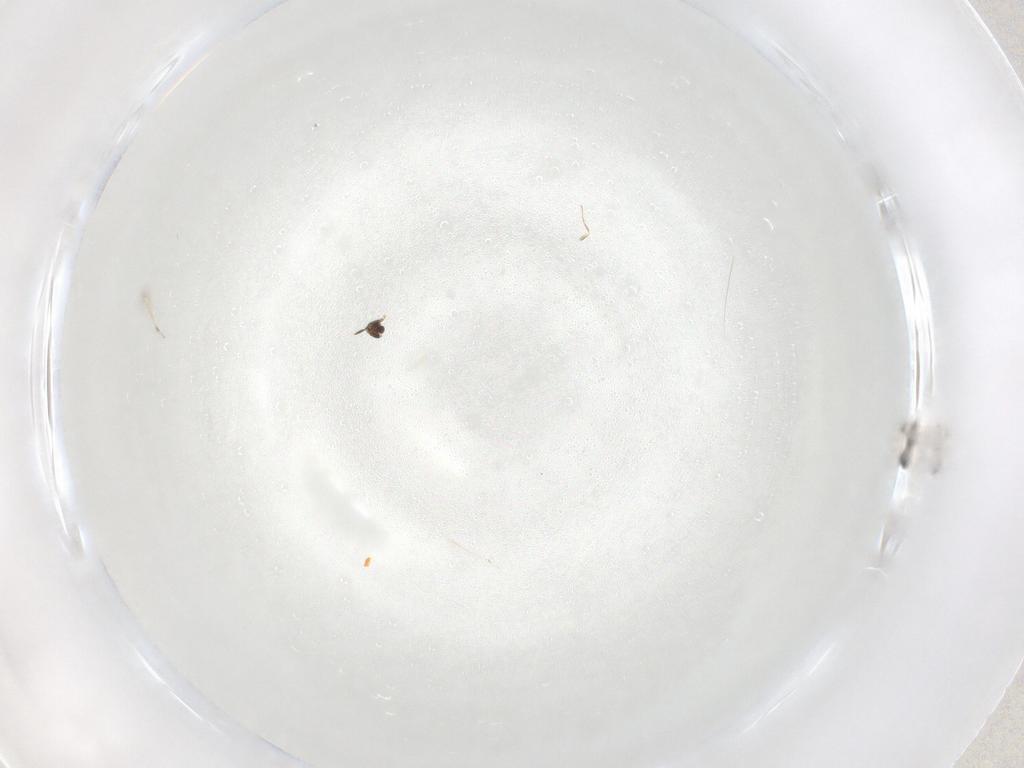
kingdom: Animalia
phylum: Arthropoda
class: Insecta
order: Hymenoptera
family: Mymaridae
